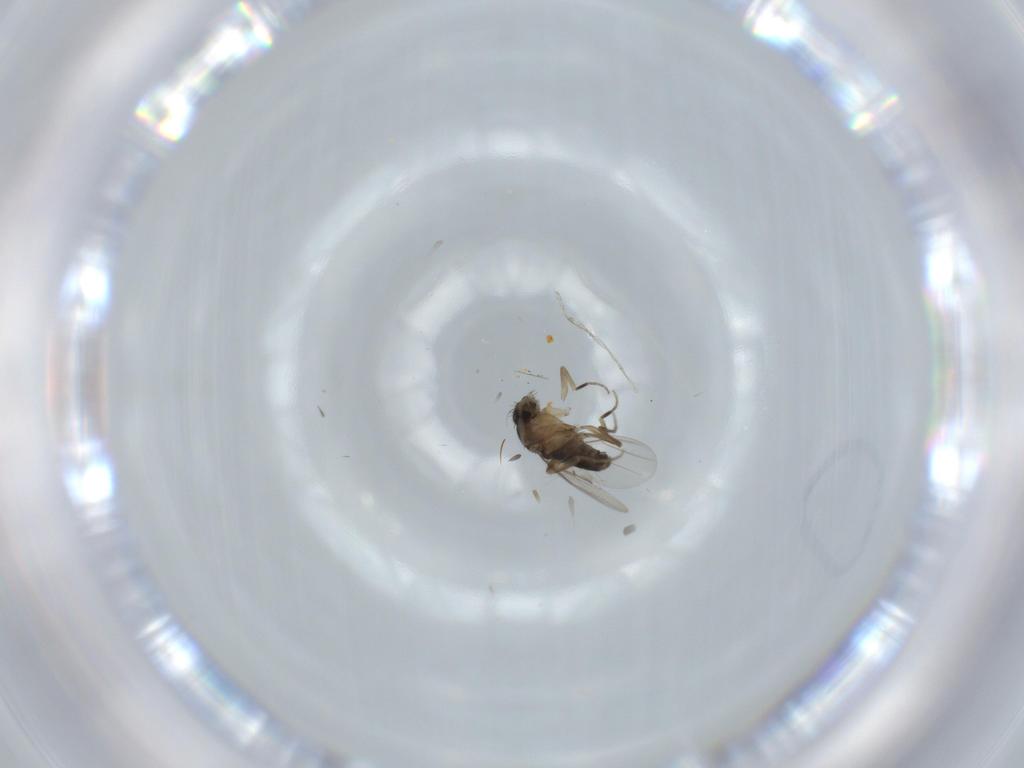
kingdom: Animalia
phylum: Arthropoda
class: Insecta
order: Diptera
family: Phoridae
